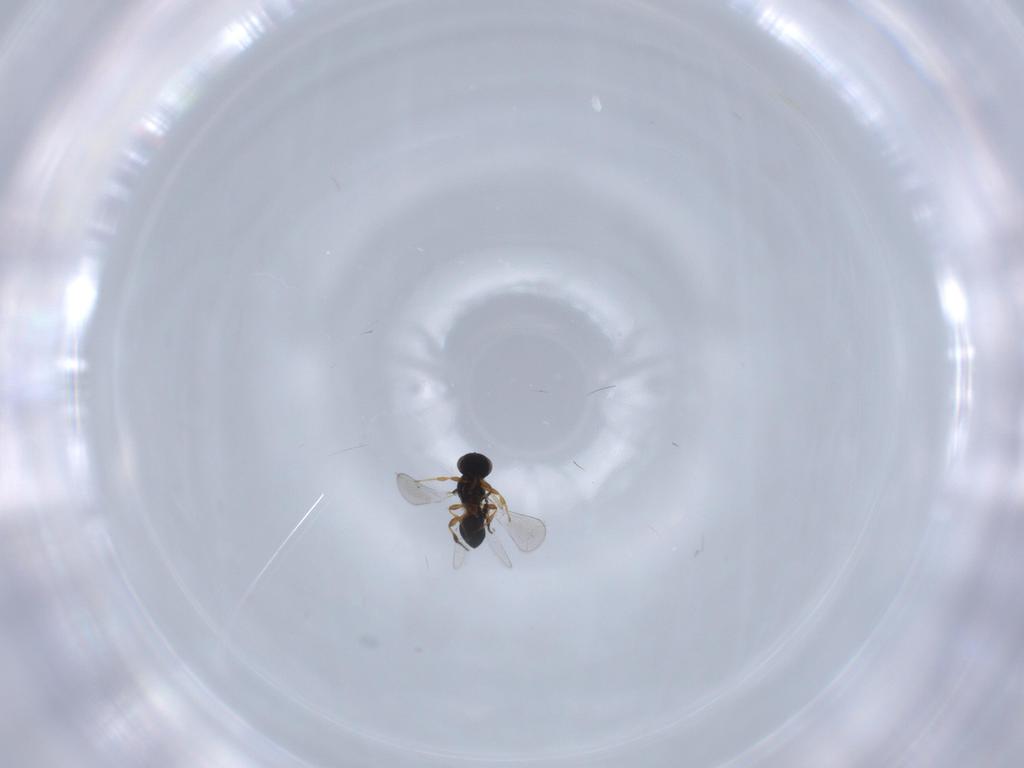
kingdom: Animalia
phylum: Arthropoda
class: Insecta
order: Hymenoptera
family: Platygastridae
